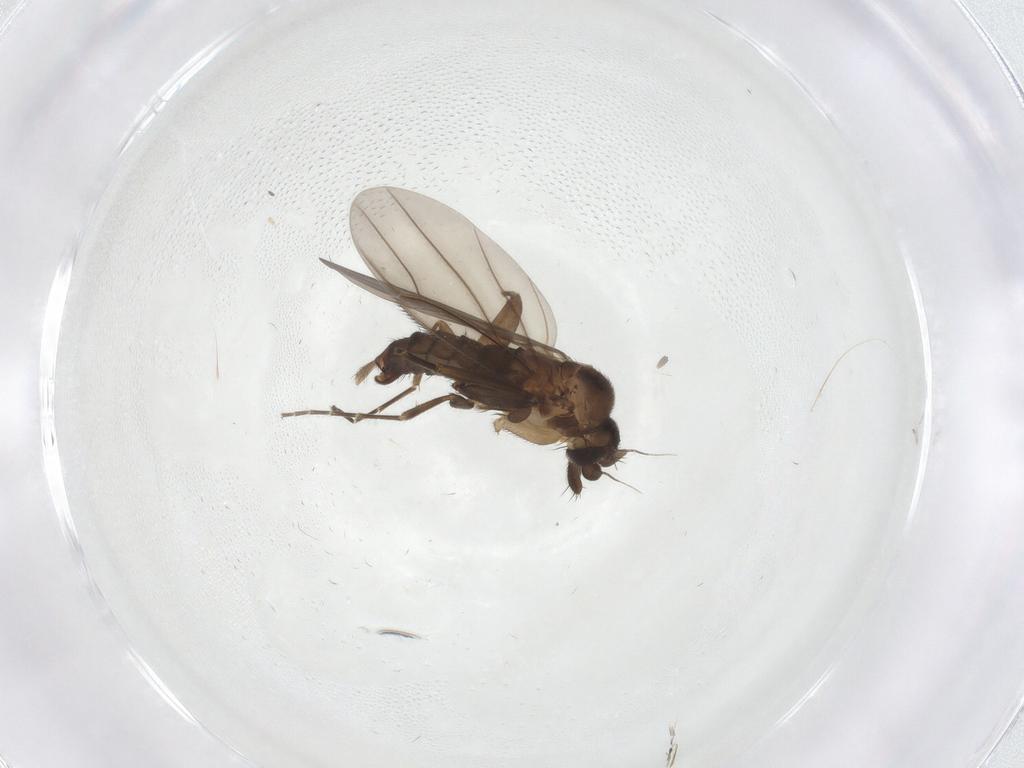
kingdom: Animalia
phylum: Arthropoda
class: Insecta
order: Diptera
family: Phoridae
